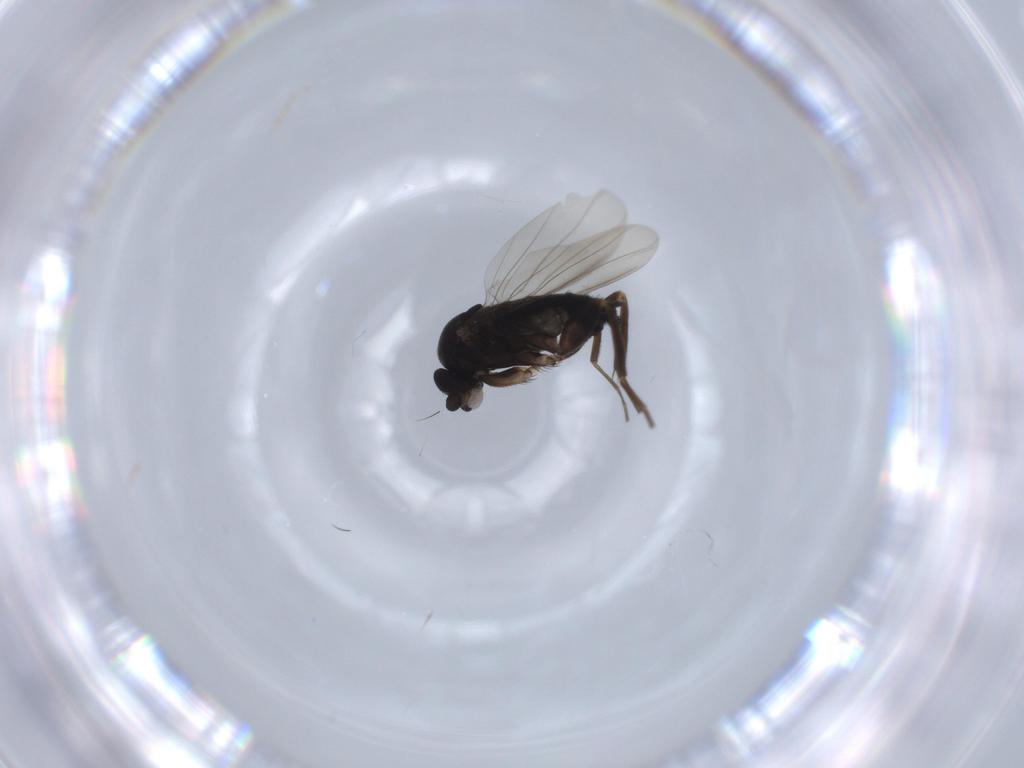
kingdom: Animalia
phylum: Arthropoda
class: Insecta
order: Diptera
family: Phoridae
